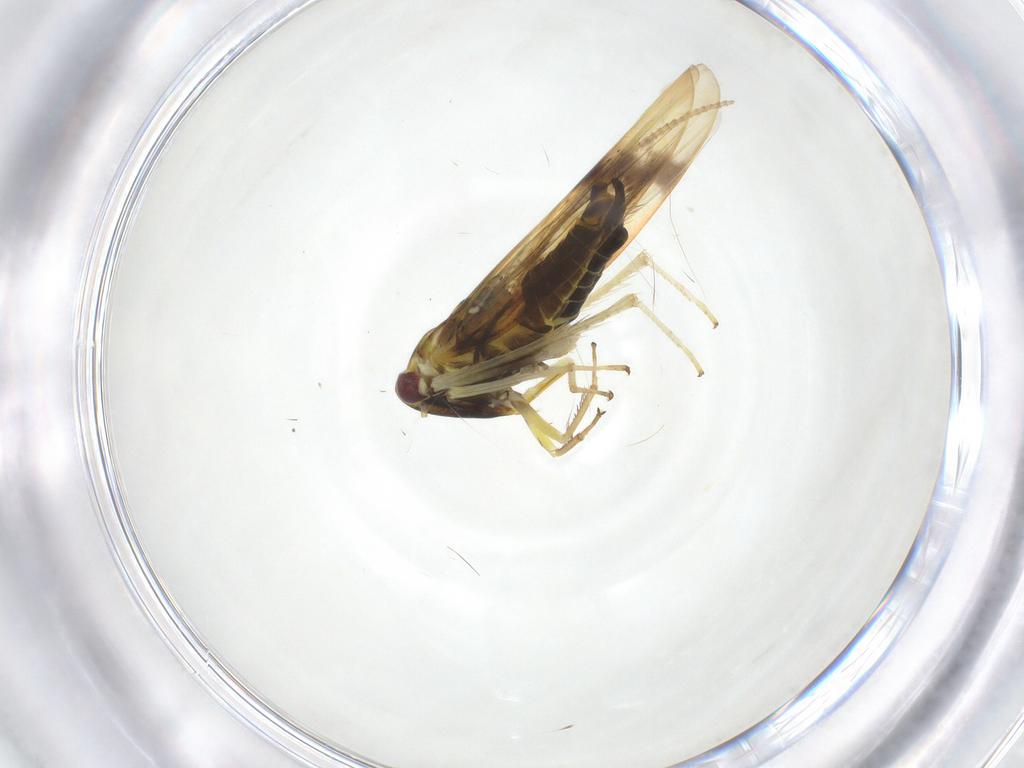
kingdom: Animalia
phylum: Arthropoda
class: Insecta
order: Hemiptera
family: Cicadellidae
